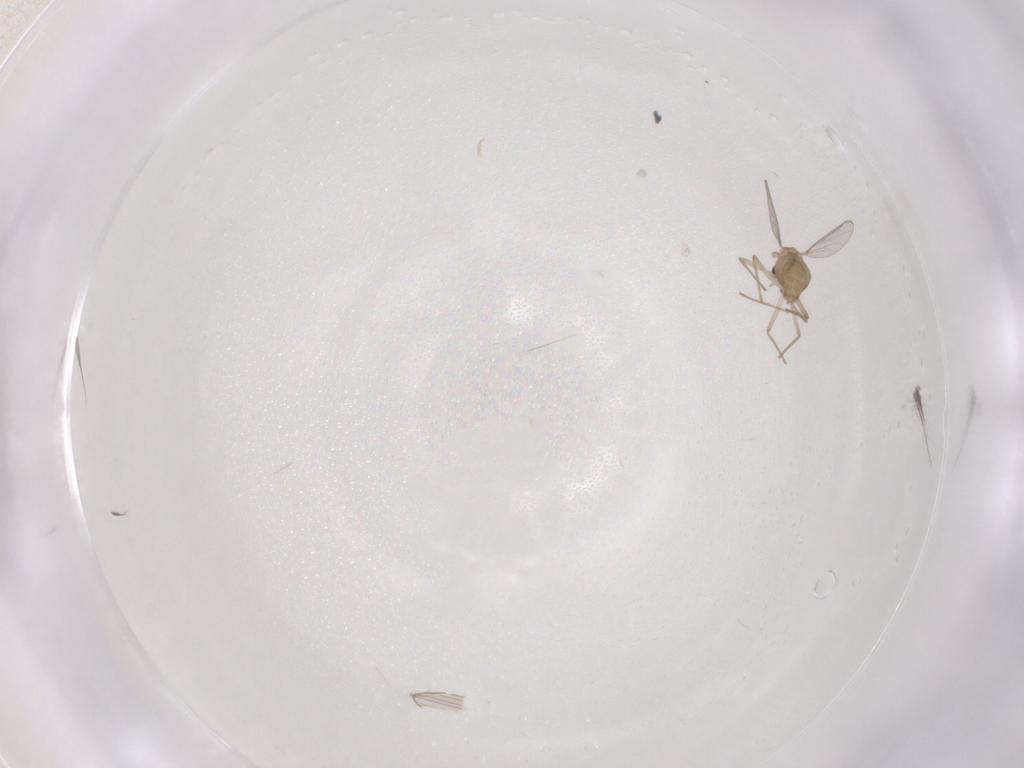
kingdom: Animalia
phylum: Arthropoda
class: Insecta
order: Diptera
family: Chironomidae
